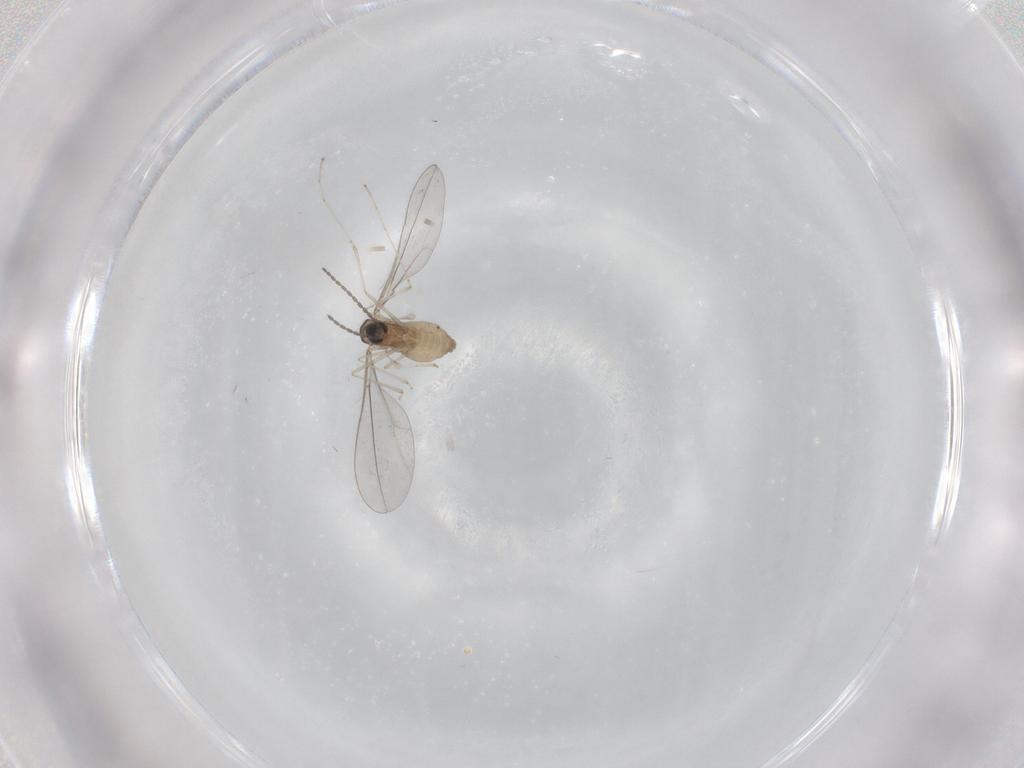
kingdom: Animalia
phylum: Arthropoda
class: Insecta
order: Diptera
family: Cecidomyiidae
